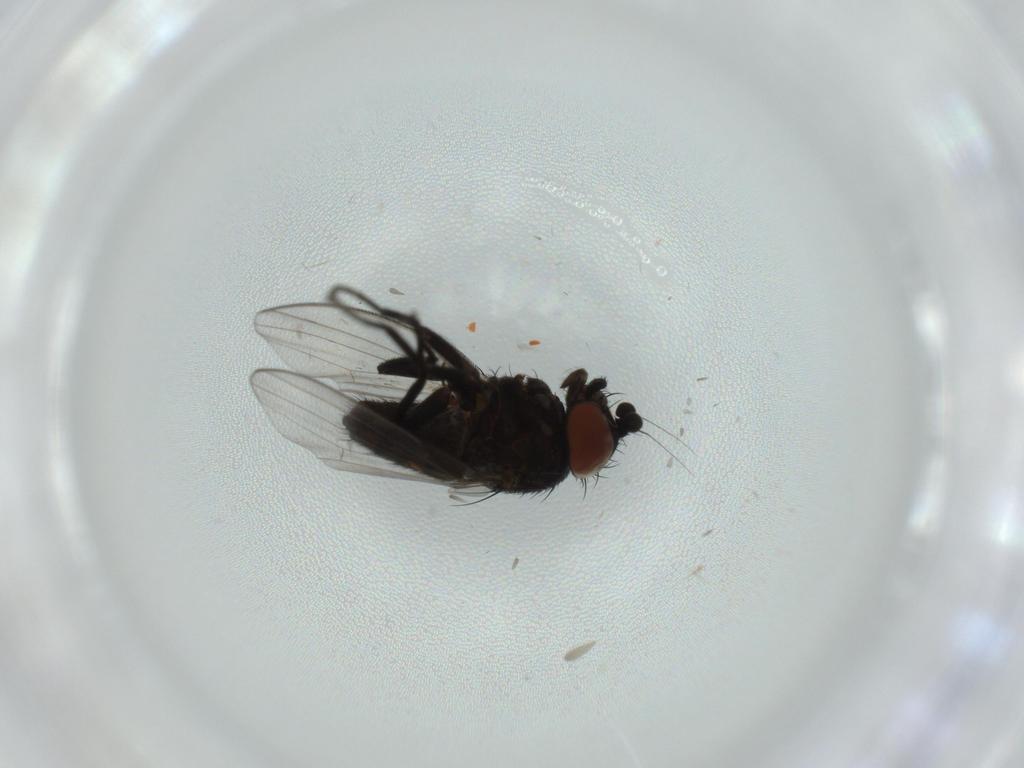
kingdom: Animalia
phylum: Arthropoda
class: Insecta
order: Diptera
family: Milichiidae
